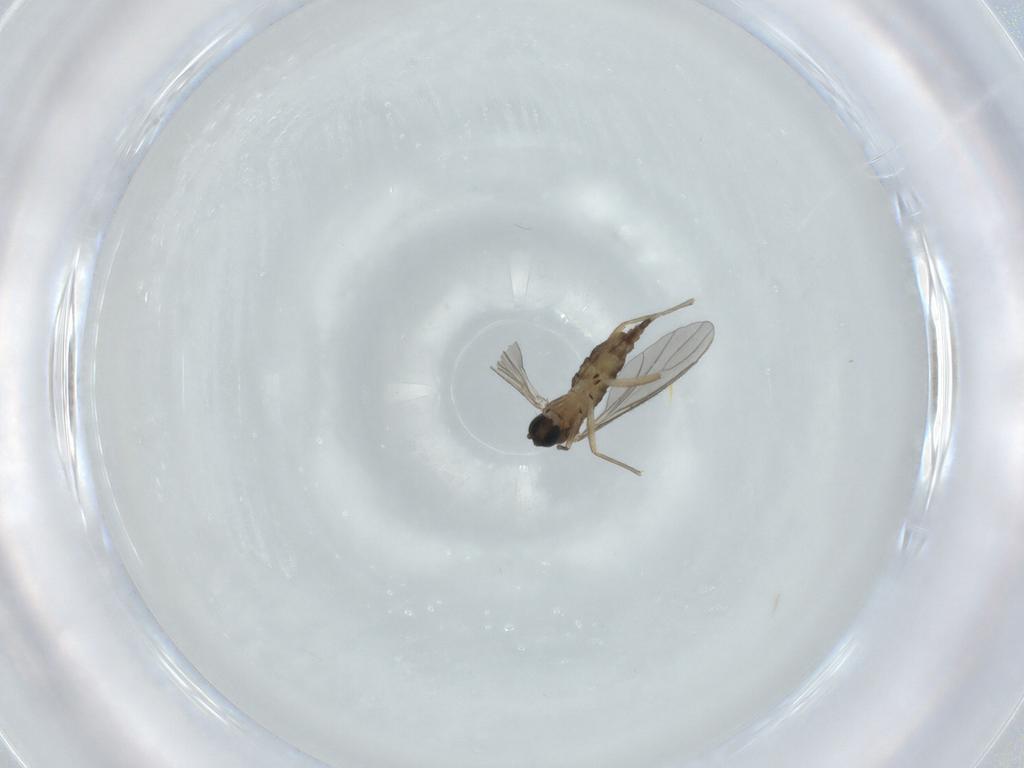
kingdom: Animalia
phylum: Arthropoda
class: Insecta
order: Diptera
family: Sciaridae
